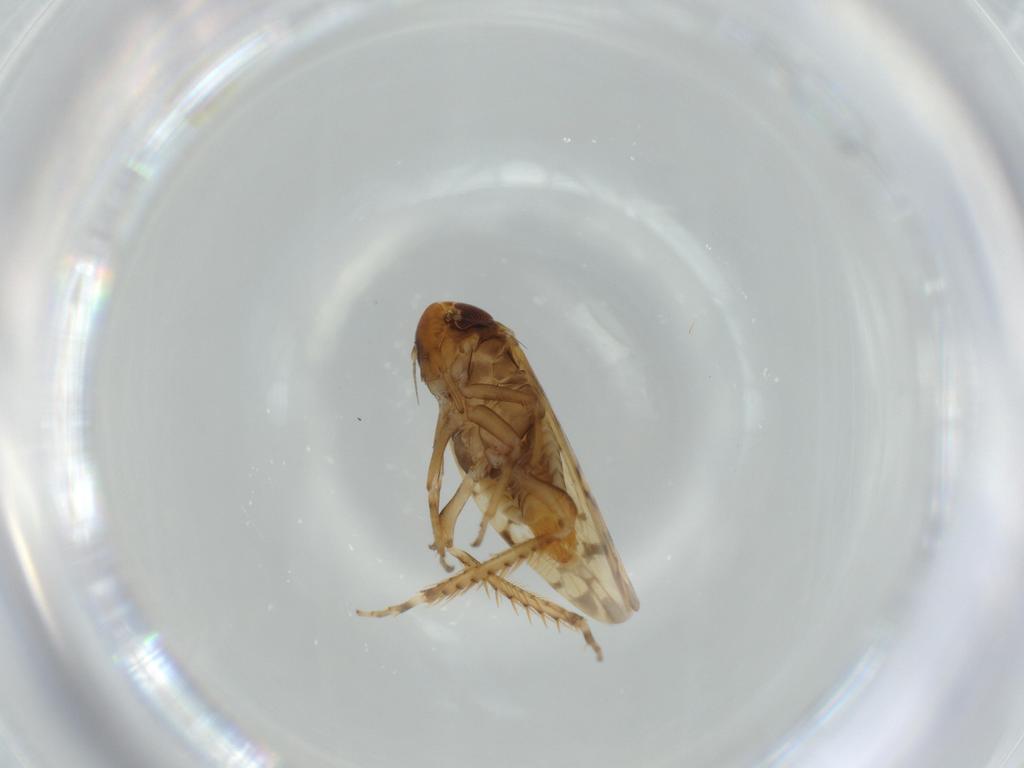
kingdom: Animalia
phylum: Arthropoda
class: Insecta
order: Hemiptera
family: Cicadellidae
